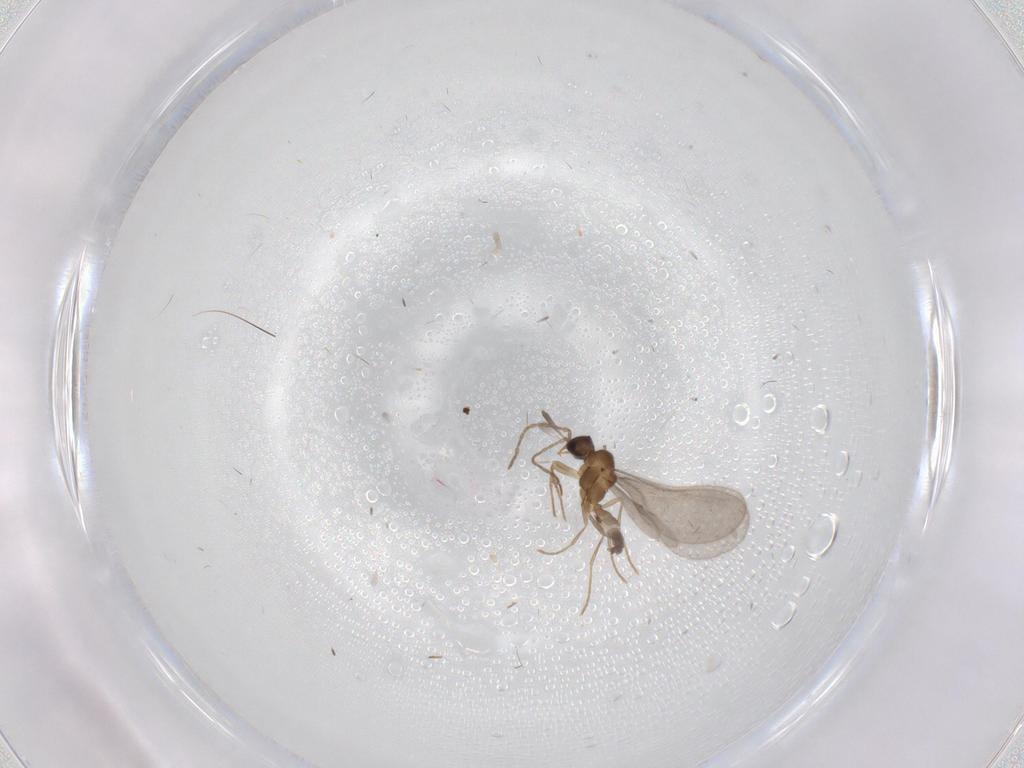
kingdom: Animalia
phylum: Arthropoda
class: Insecta
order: Hymenoptera
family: Formicidae
